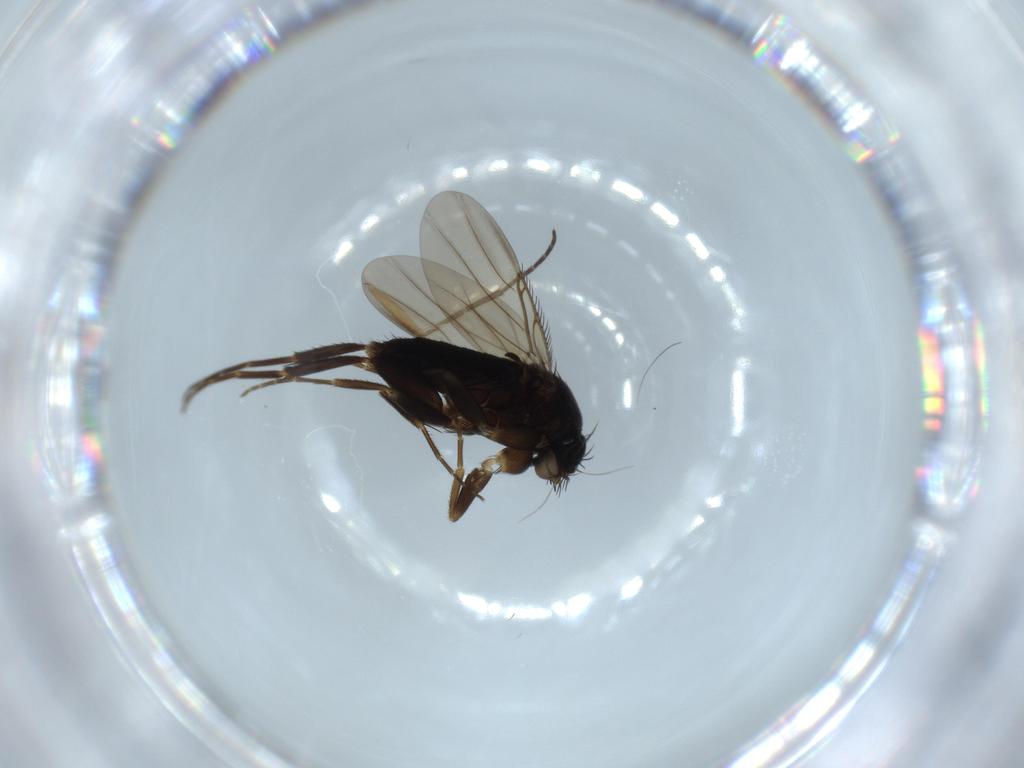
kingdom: Animalia
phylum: Arthropoda
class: Insecta
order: Diptera
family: Phoridae
